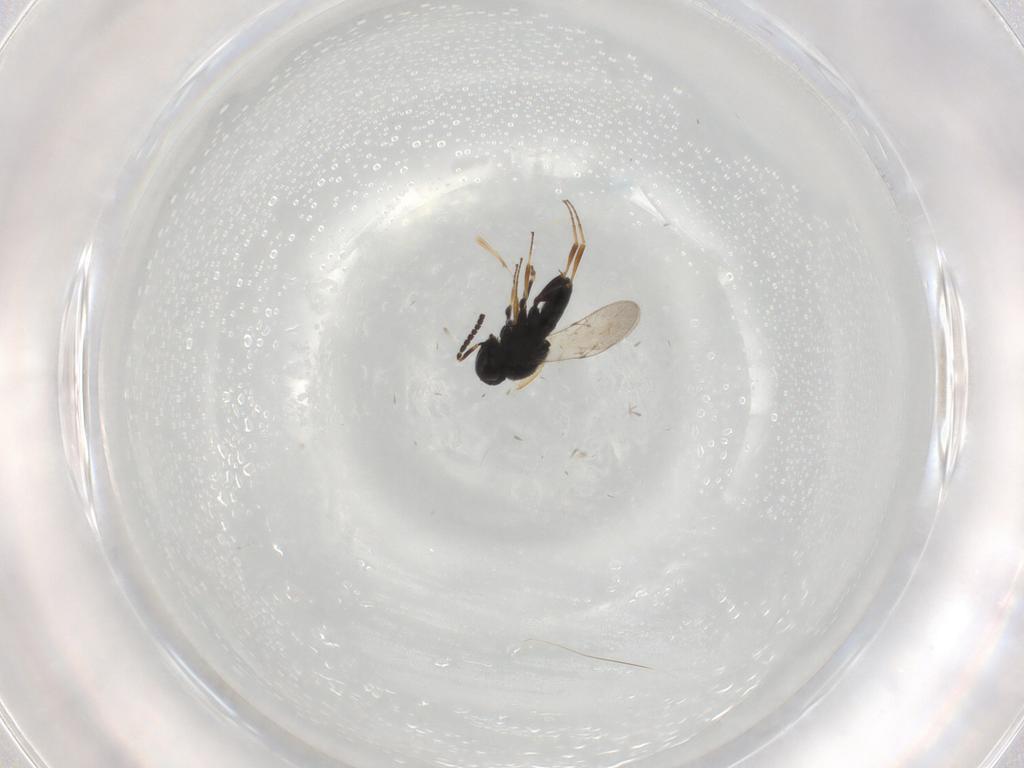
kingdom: Animalia
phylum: Arthropoda
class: Insecta
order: Hymenoptera
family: Scelionidae
